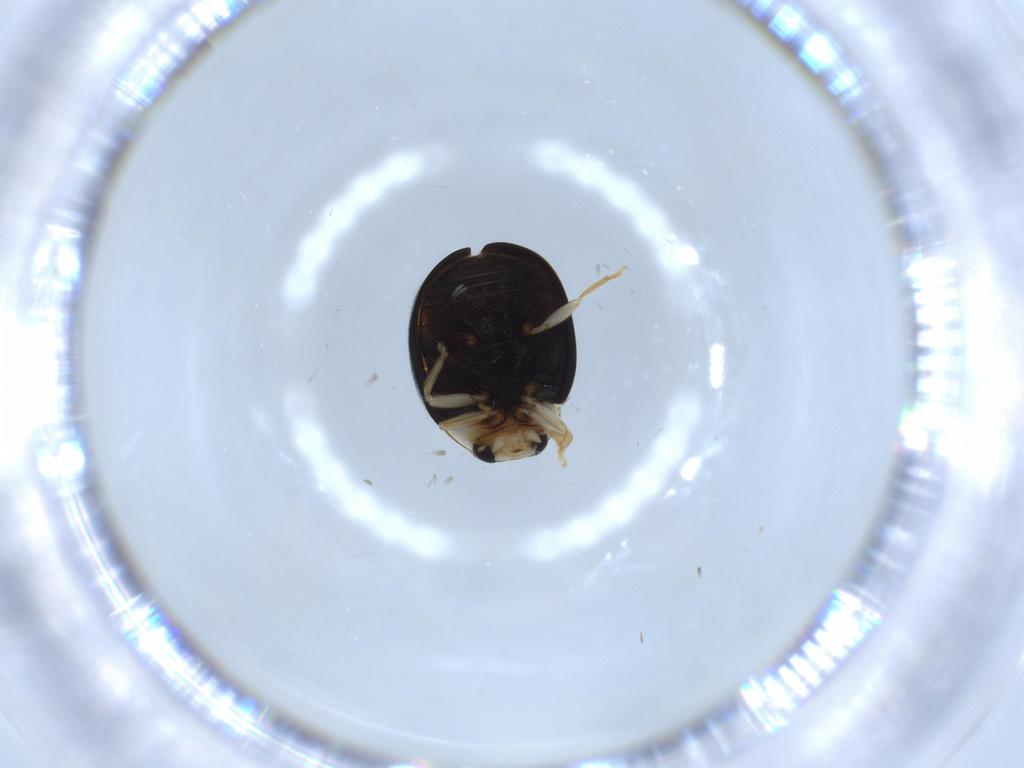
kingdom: Animalia
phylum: Arthropoda
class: Insecta
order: Coleoptera
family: Coccinellidae
